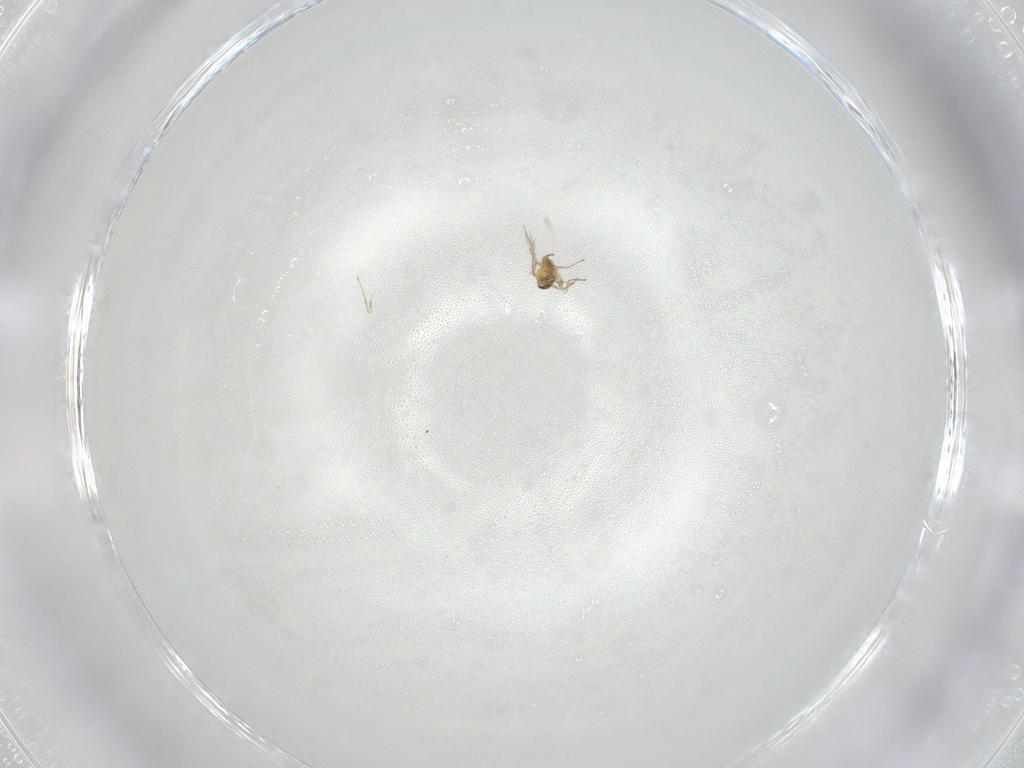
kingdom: Animalia
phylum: Arthropoda
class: Insecta
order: Hymenoptera
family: Trichogrammatidae
